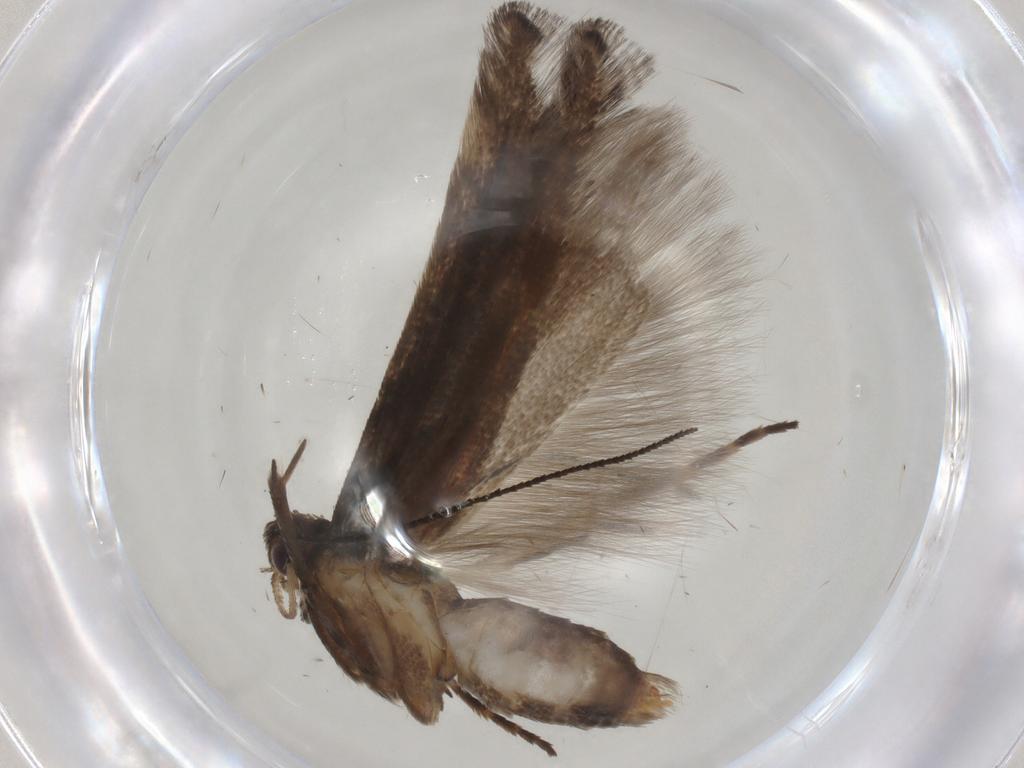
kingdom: Animalia
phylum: Arthropoda
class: Insecta
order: Lepidoptera
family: Gelechiidae
